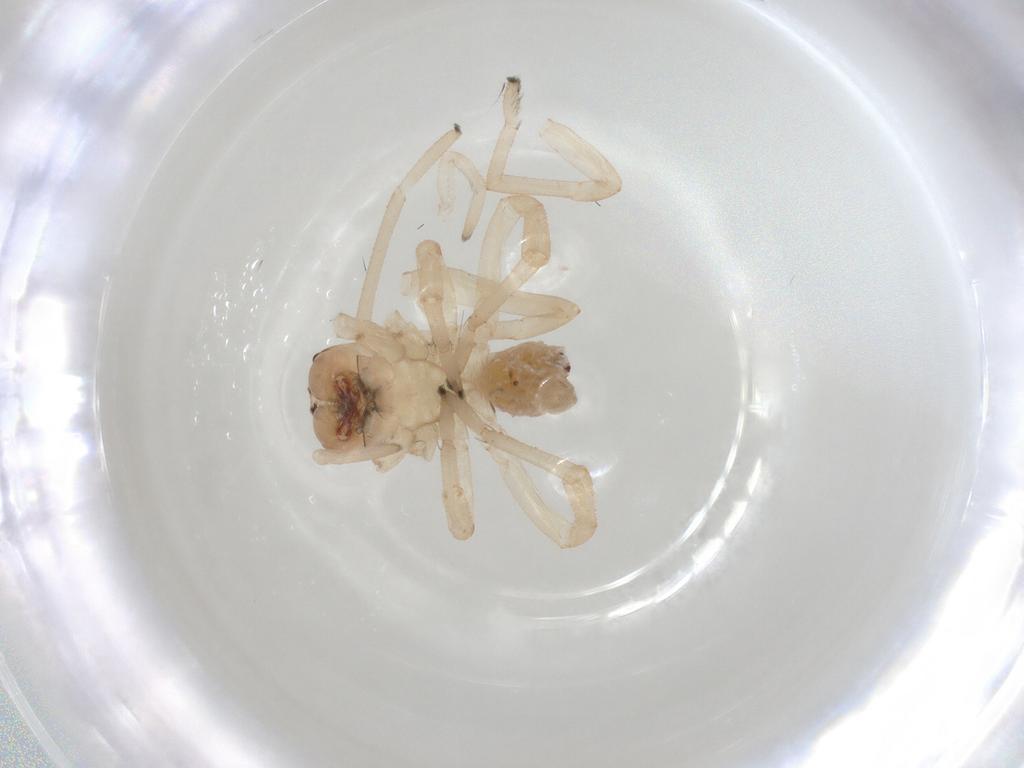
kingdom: Animalia
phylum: Arthropoda
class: Arachnida
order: Araneae
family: Cheiracanthiidae
